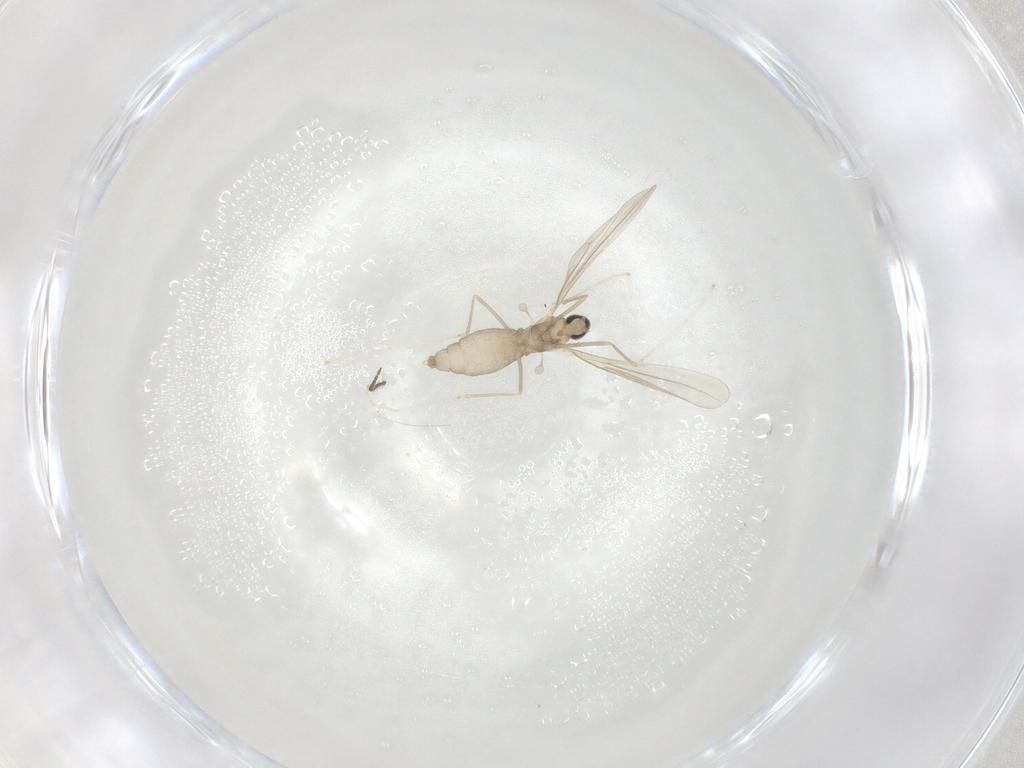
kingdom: Animalia
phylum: Arthropoda
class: Insecta
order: Diptera
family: Cecidomyiidae
